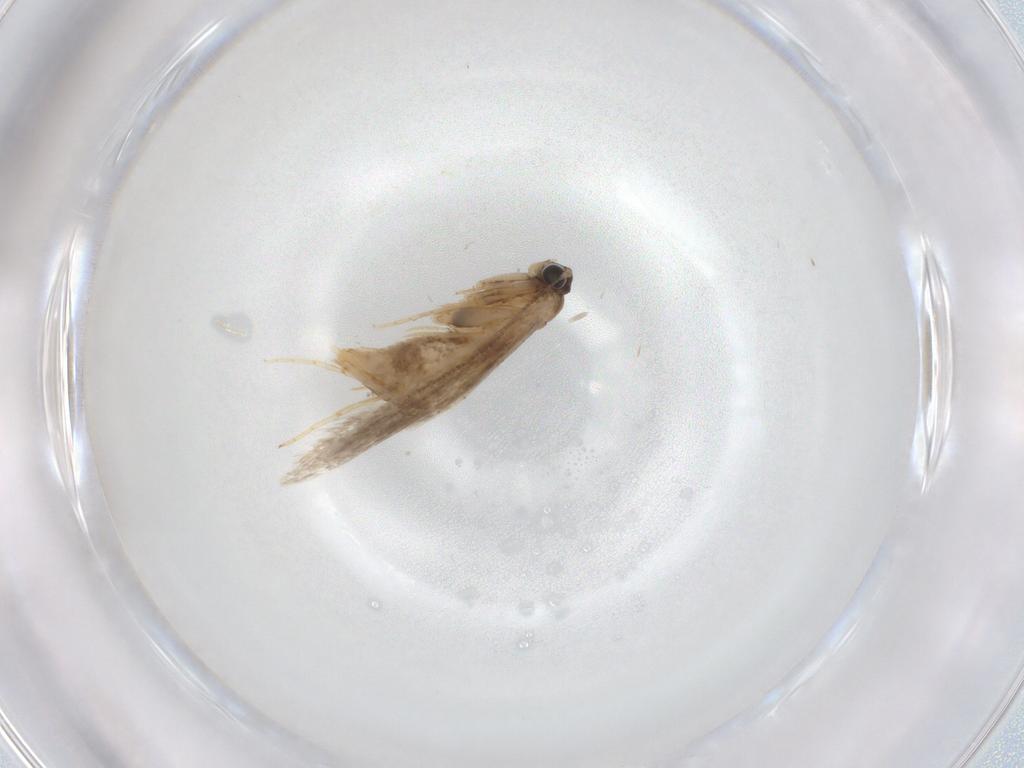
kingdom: Animalia
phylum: Arthropoda
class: Insecta
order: Lepidoptera
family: Tineidae
